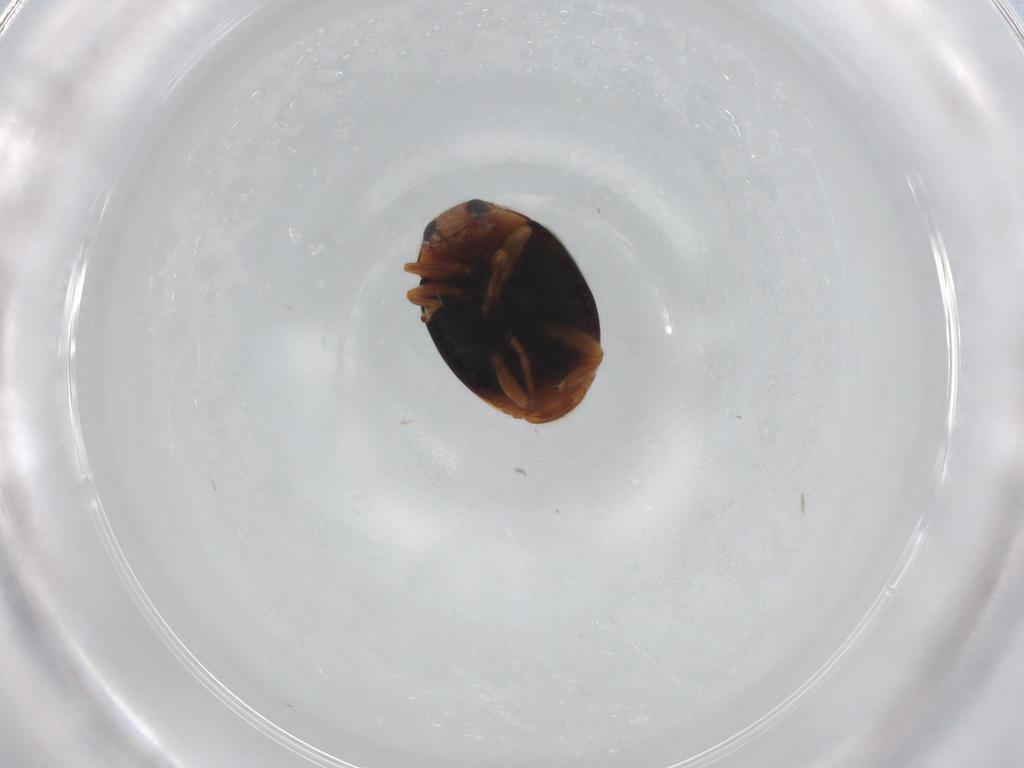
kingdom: Animalia
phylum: Arthropoda
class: Insecta
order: Coleoptera
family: Coccinellidae
